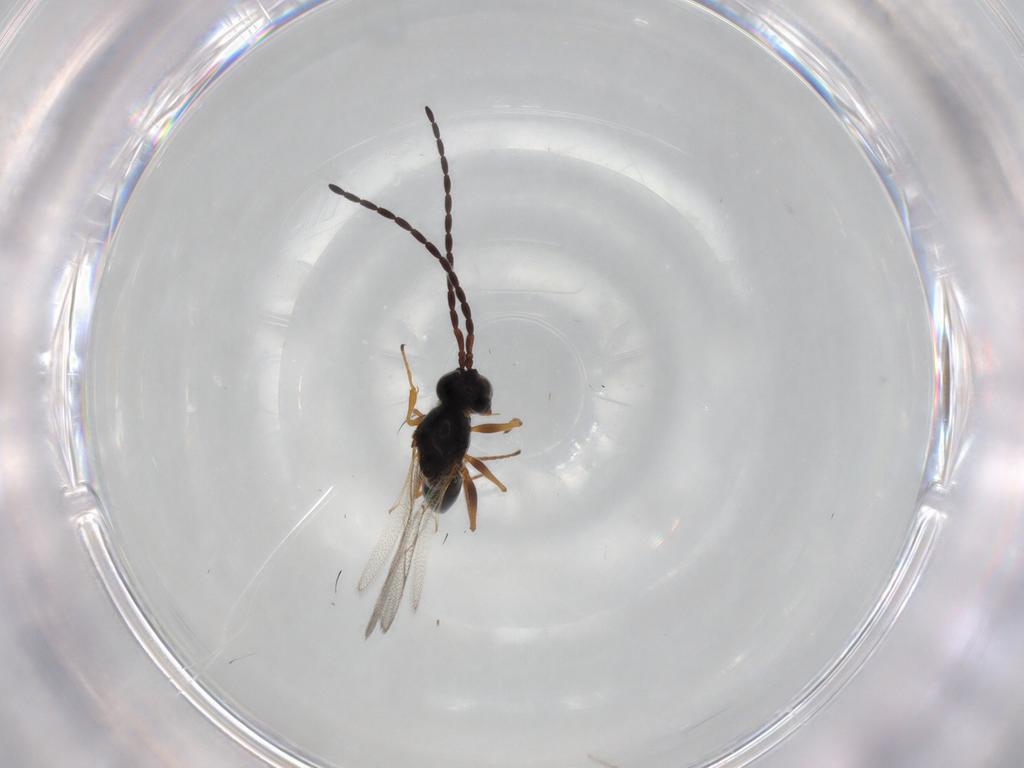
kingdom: Animalia
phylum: Arthropoda
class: Insecta
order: Hymenoptera
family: Figitidae
